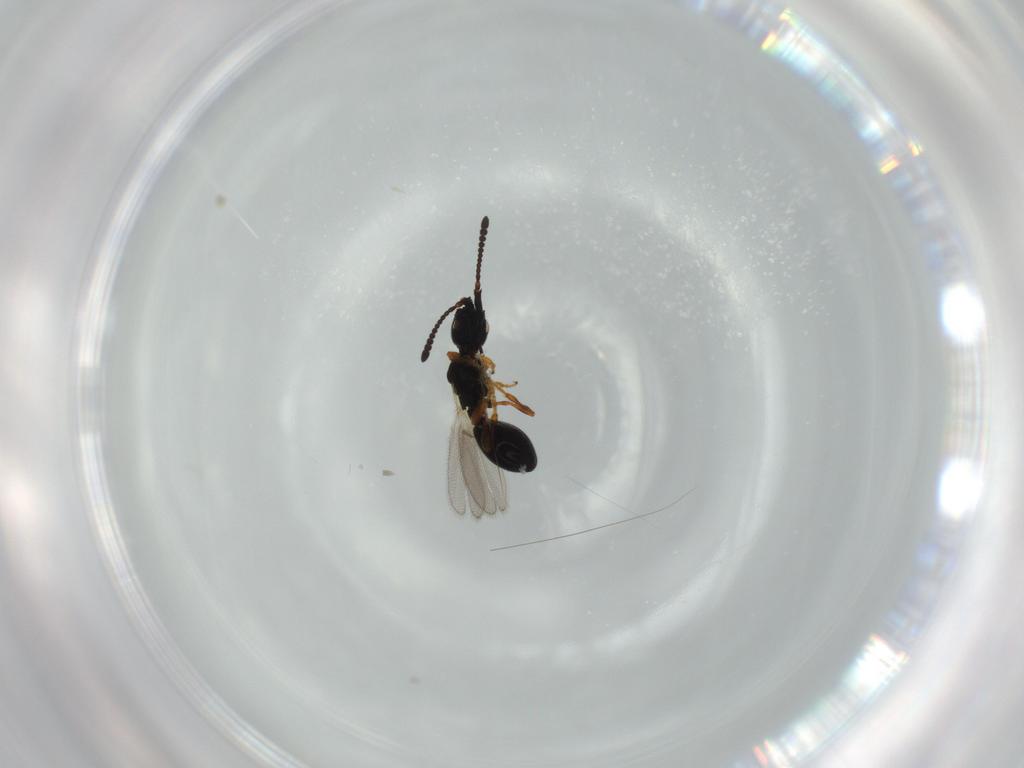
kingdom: Animalia
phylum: Arthropoda
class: Insecta
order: Hymenoptera
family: Diapriidae
